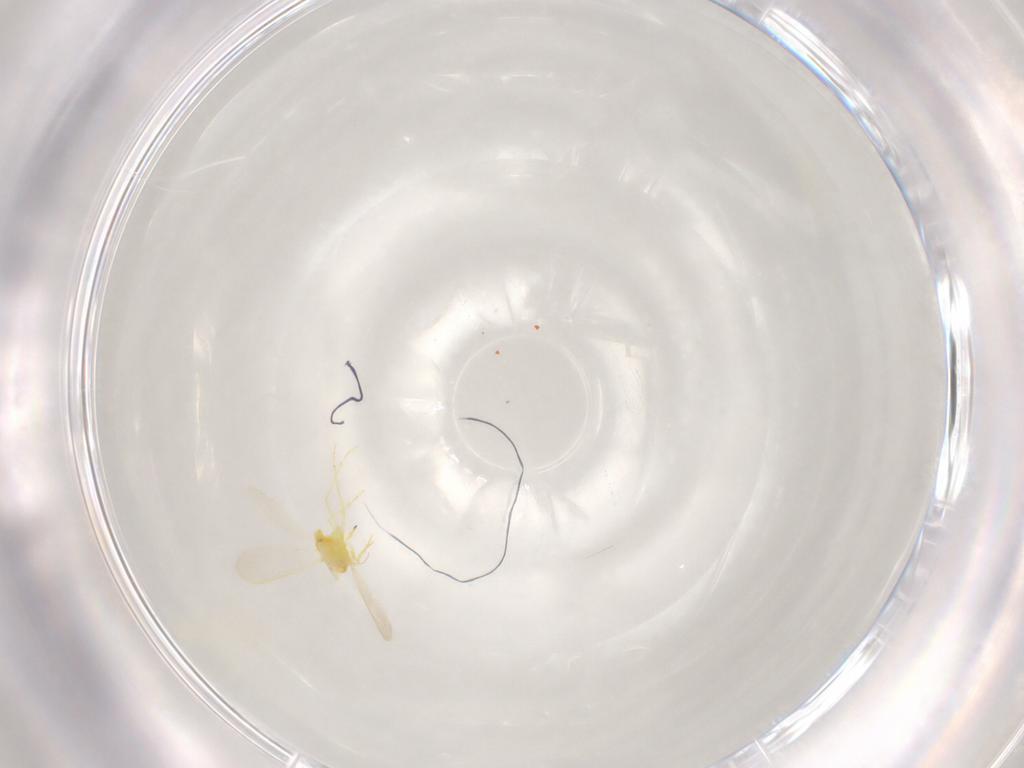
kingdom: Animalia
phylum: Arthropoda
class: Insecta
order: Hemiptera
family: Aleyrodidae
